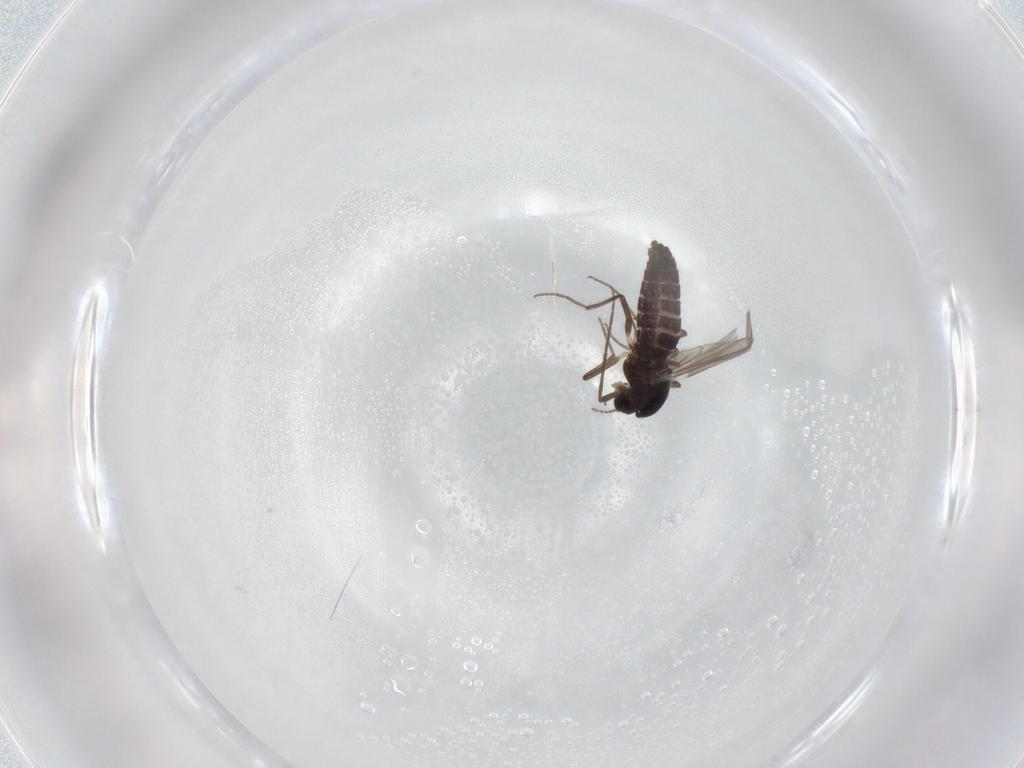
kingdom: Animalia
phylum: Arthropoda
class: Insecta
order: Diptera
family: Chironomidae
